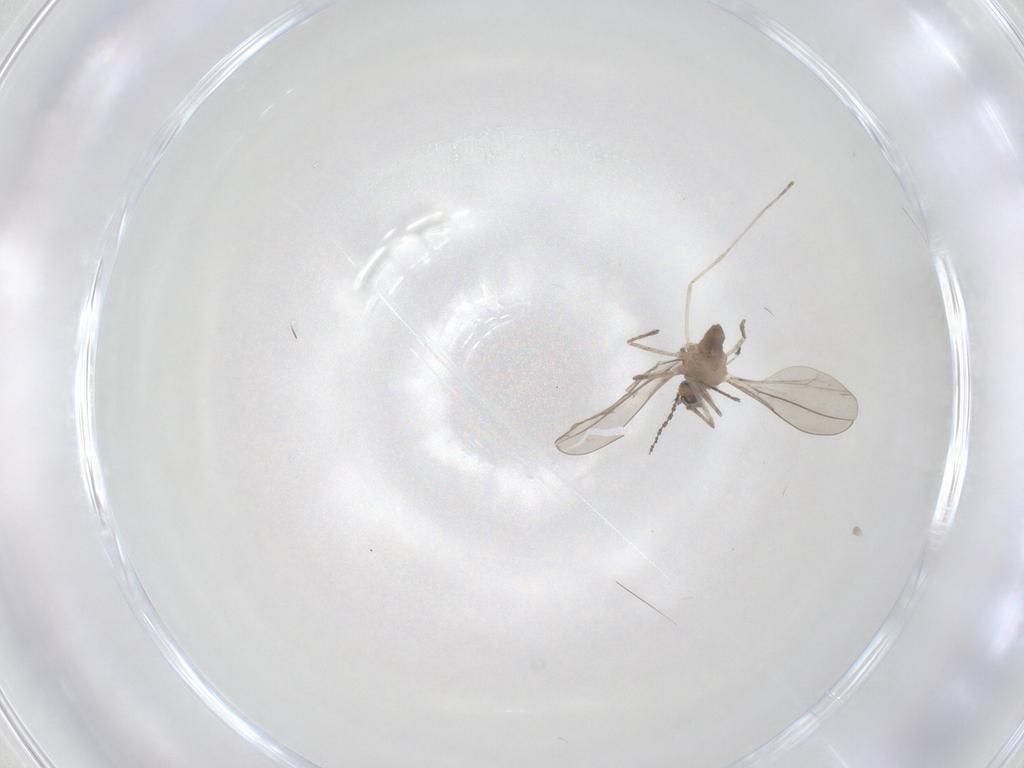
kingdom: Animalia
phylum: Arthropoda
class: Insecta
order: Diptera
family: Cecidomyiidae
